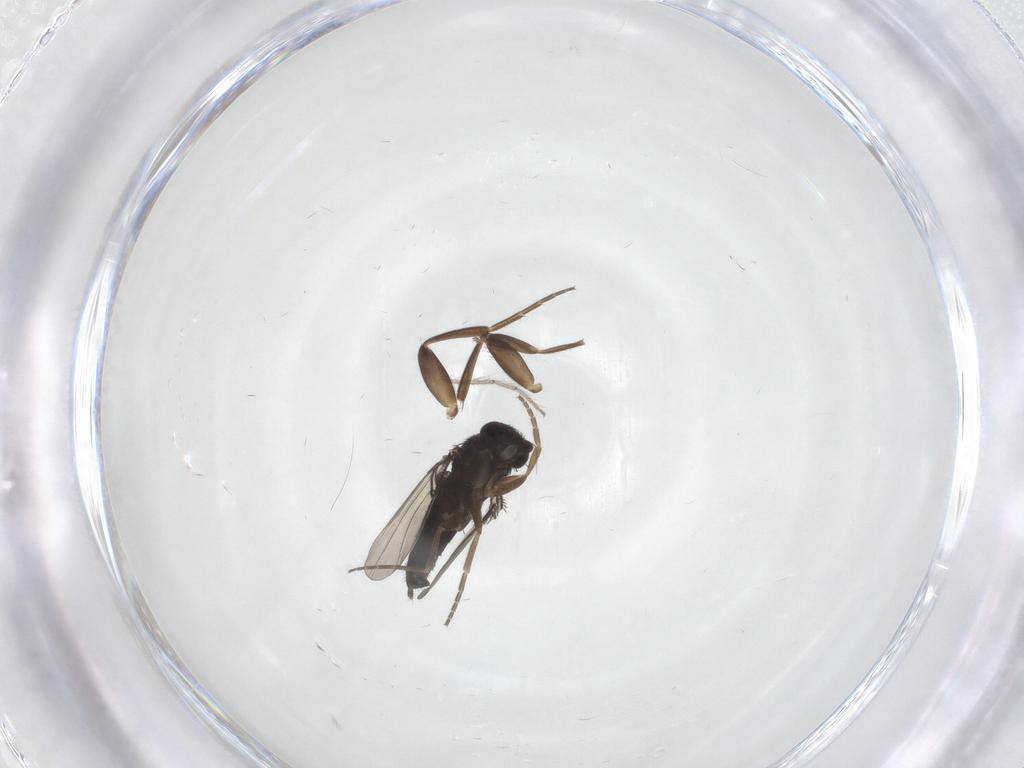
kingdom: Animalia
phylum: Arthropoda
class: Insecta
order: Diptera
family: Phoridae
